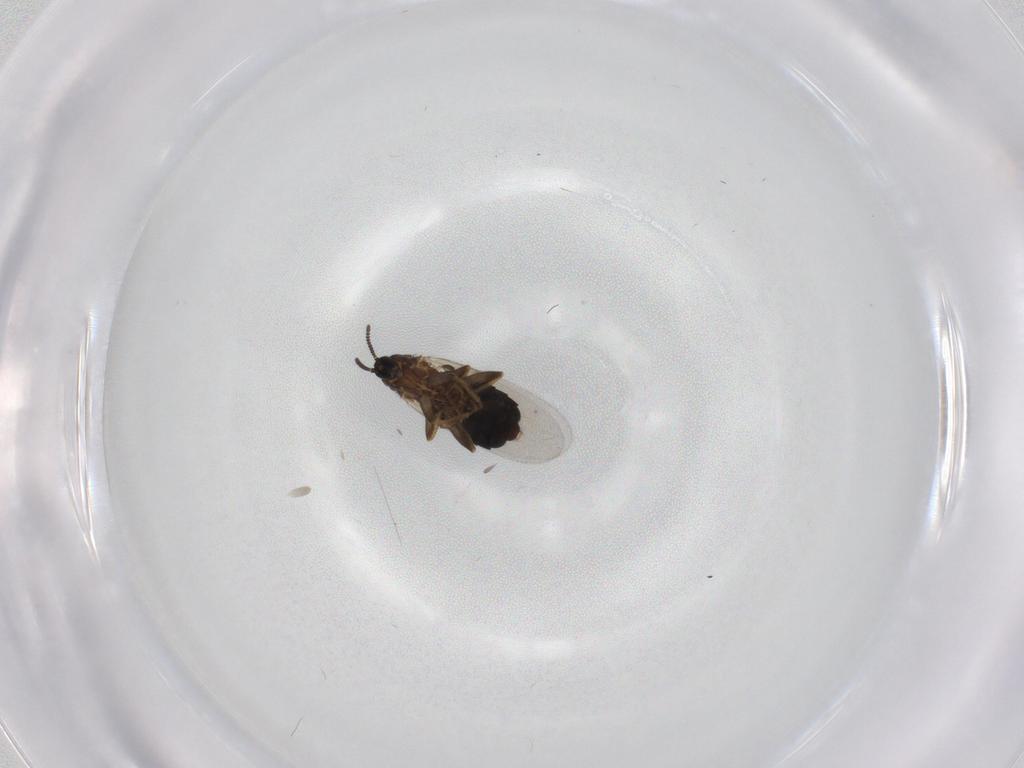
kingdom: Animalia
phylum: Arthropoda
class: Insecta
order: Diptera
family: Scatopsidae
